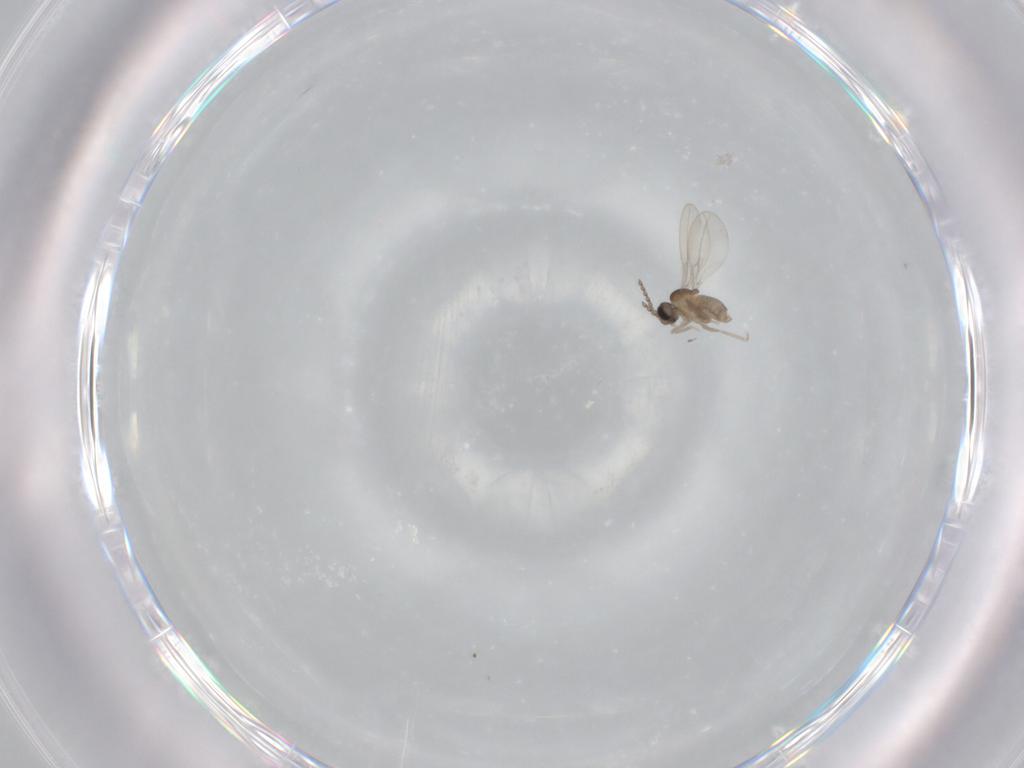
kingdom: Animalia
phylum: Arthropoda
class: Insecta
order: Diptera
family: Cecidomyiidae
